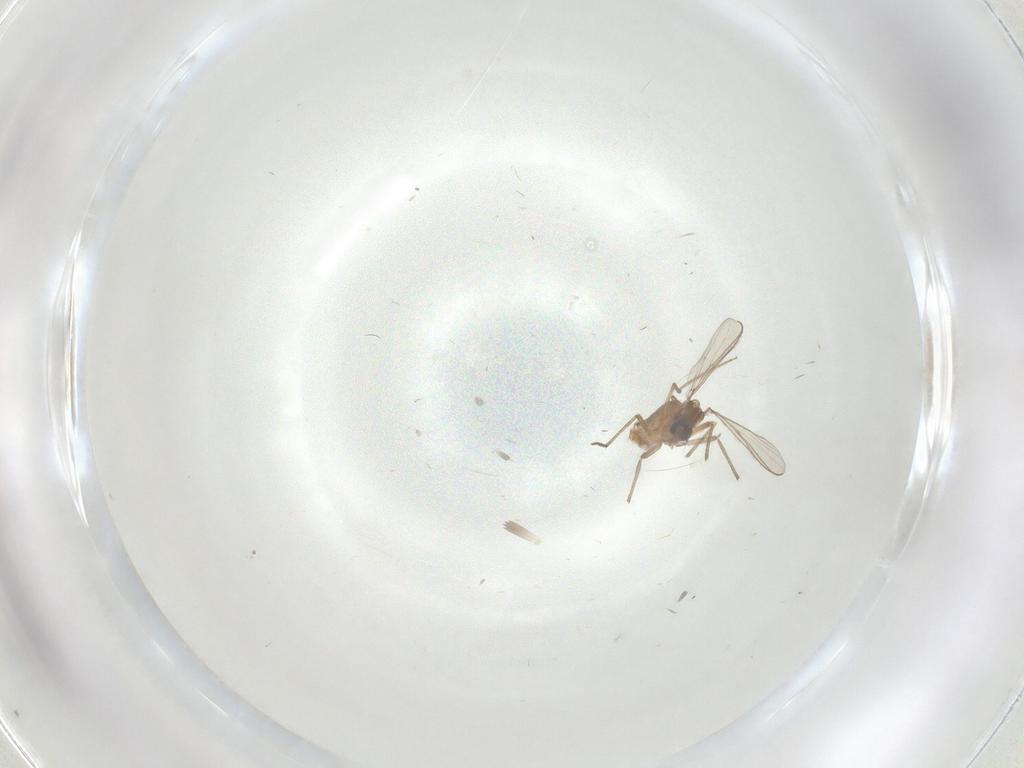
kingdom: Animalia
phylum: Arthropoda
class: Insecta
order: Diptera
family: Chironomidae
